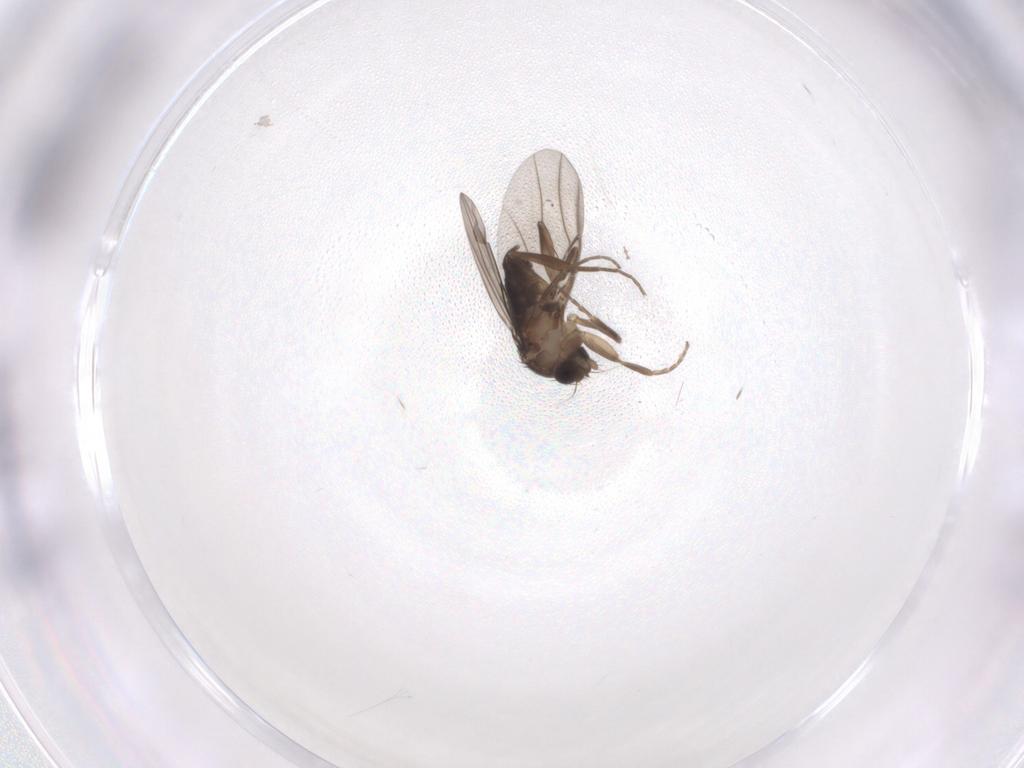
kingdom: Animalia
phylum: Arthropoda
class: Insecta
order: Diptera
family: Phoridae
